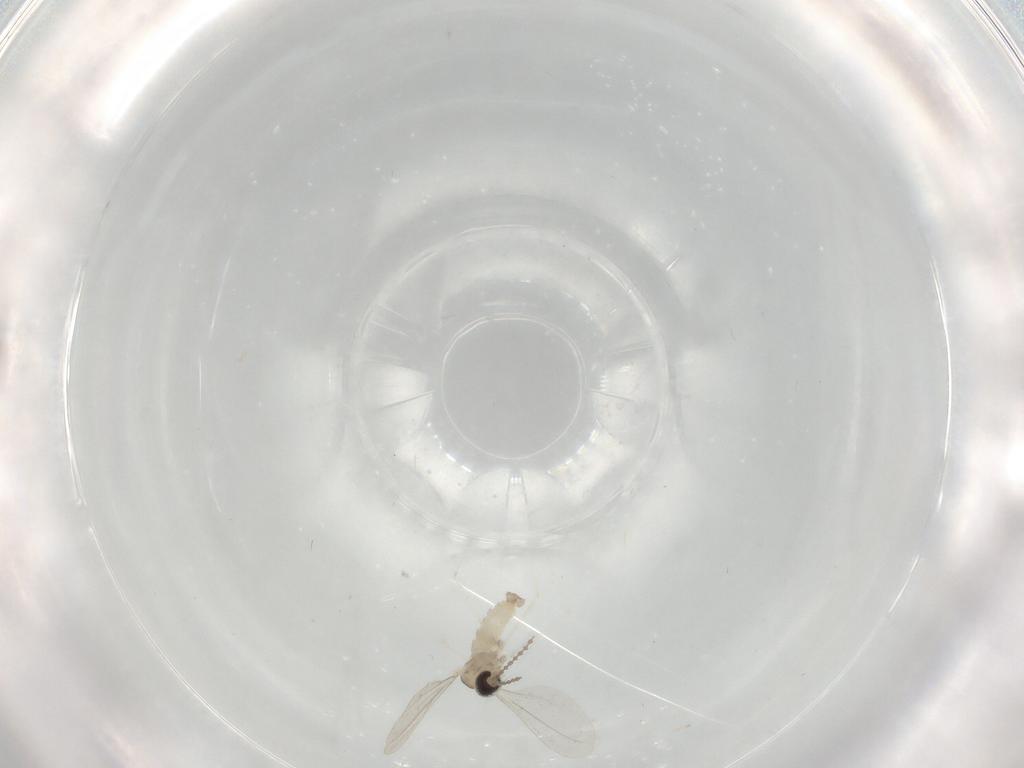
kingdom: Animalia
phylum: Arthropoda
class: Insecta
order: Diptera
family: Cecidomyiidae
